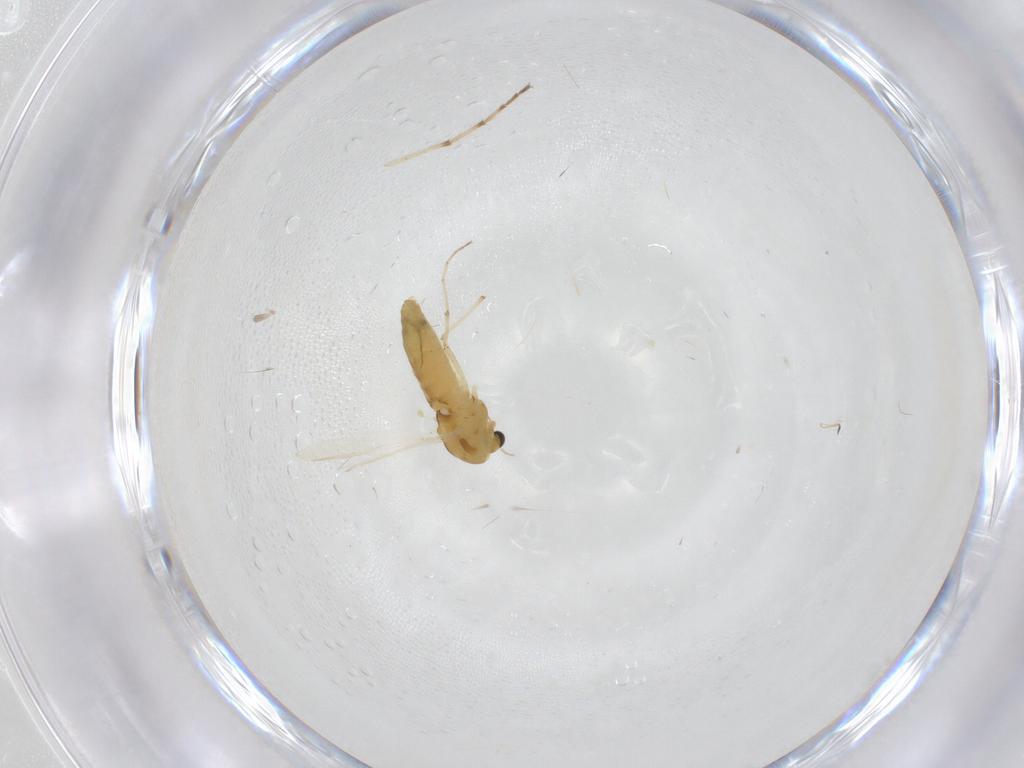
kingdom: Animalia
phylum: Arthropoda
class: Insecta
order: Diptera
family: Chironomidae
